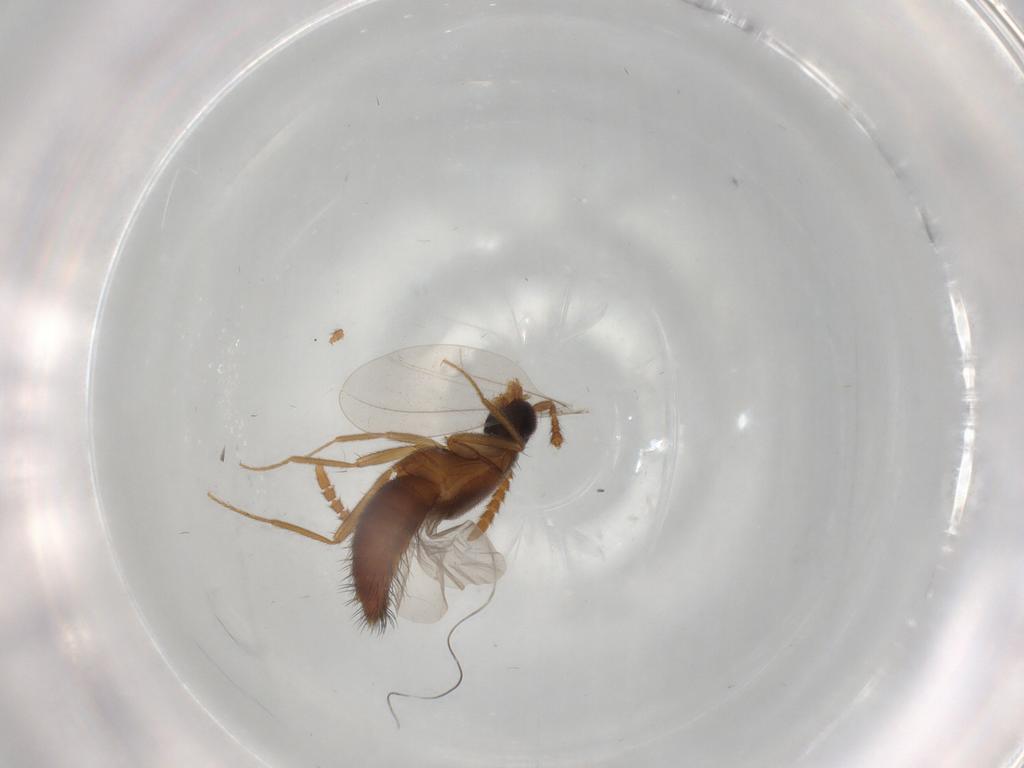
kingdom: Animalia
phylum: Arthropoda
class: Insecta
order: Coleoptera
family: Staphylinidae
